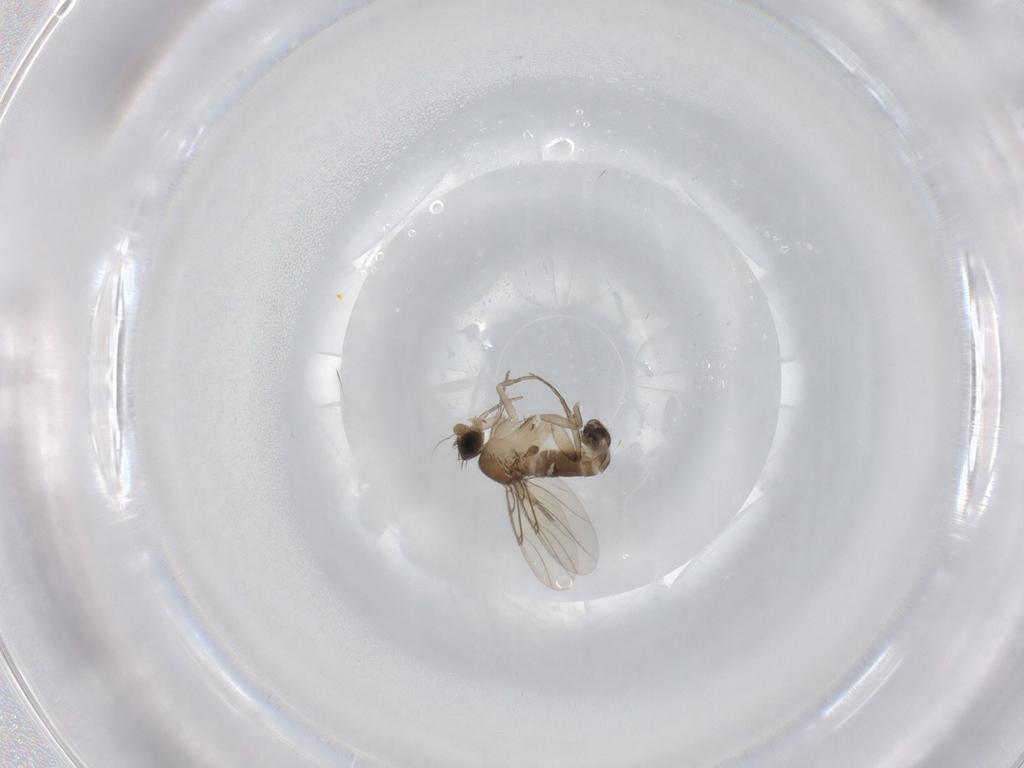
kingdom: Animalia
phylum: Arthropoda
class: Insecta
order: Diptera
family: Phoridae
